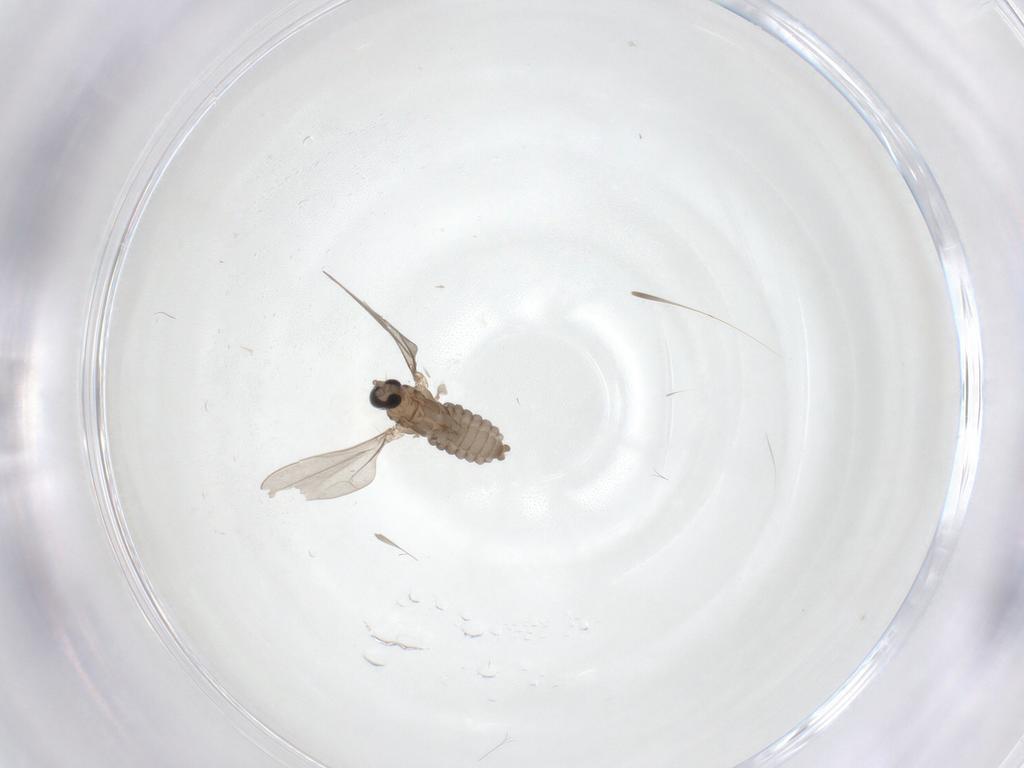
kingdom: Animalia
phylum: Arthropoda
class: Insecta
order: Diptera
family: Cecidomyiidae
